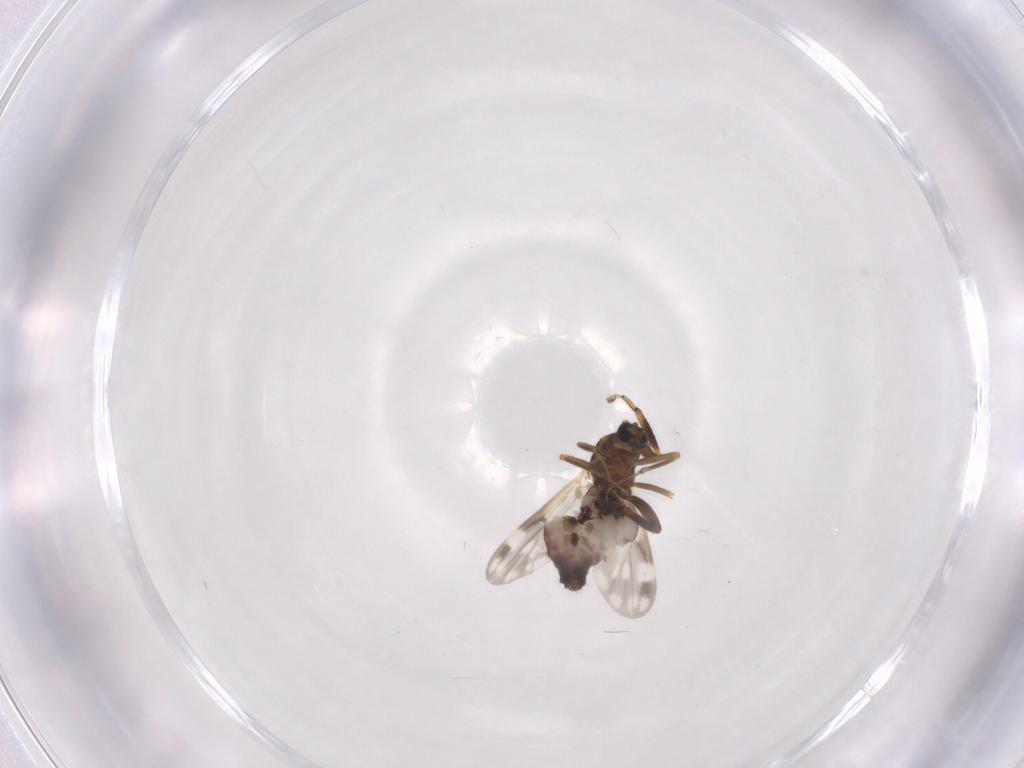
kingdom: Animalia
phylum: Arthropoda
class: Insecta
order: Diptera
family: Ceratopogonidae
